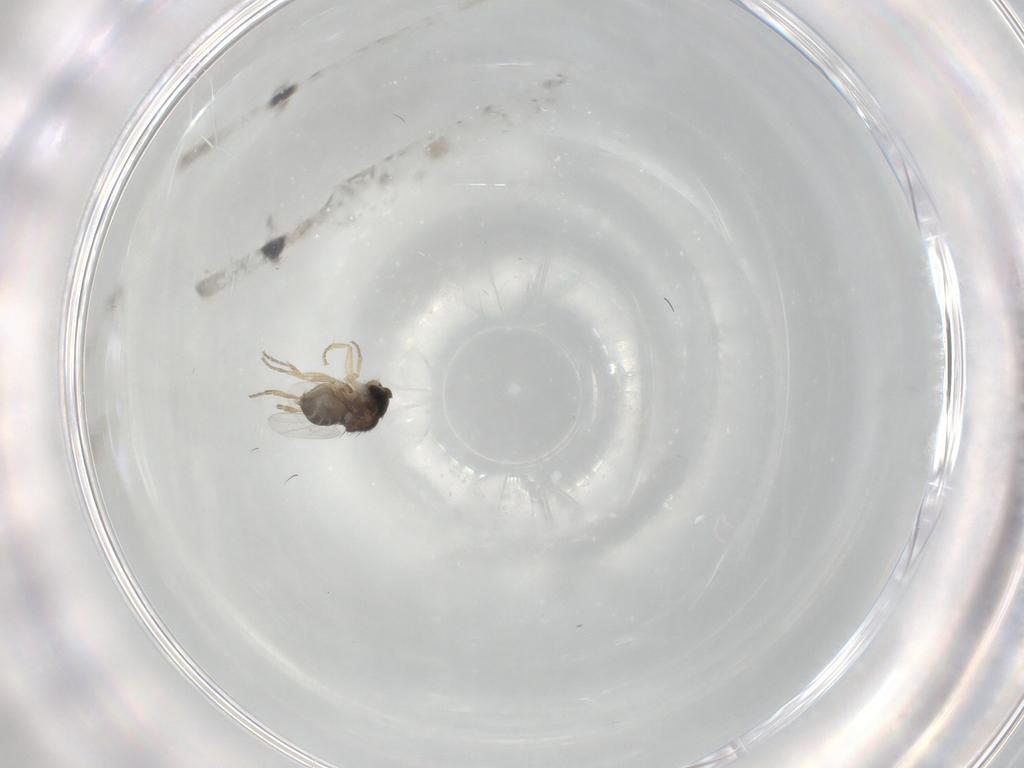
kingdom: Animalia
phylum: Arthropoda
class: Insecta
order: Diptera
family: Phoridae
